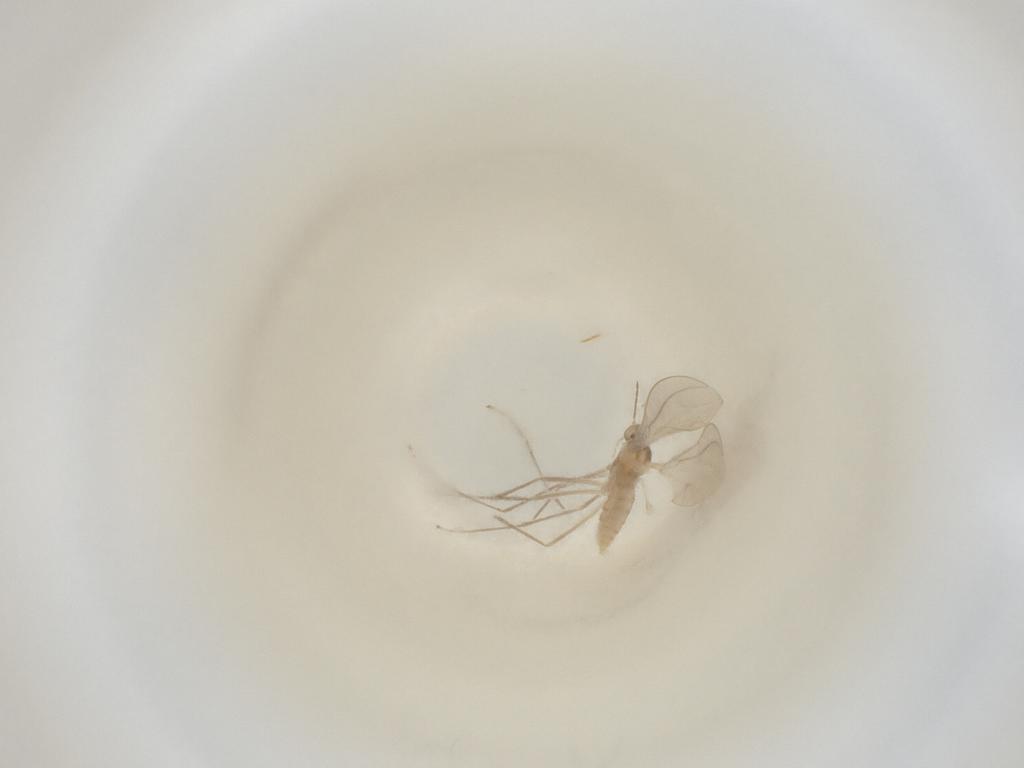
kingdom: Animalia
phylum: Arthropoda
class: Insecta
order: Diptera
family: Cecidomyiidae
